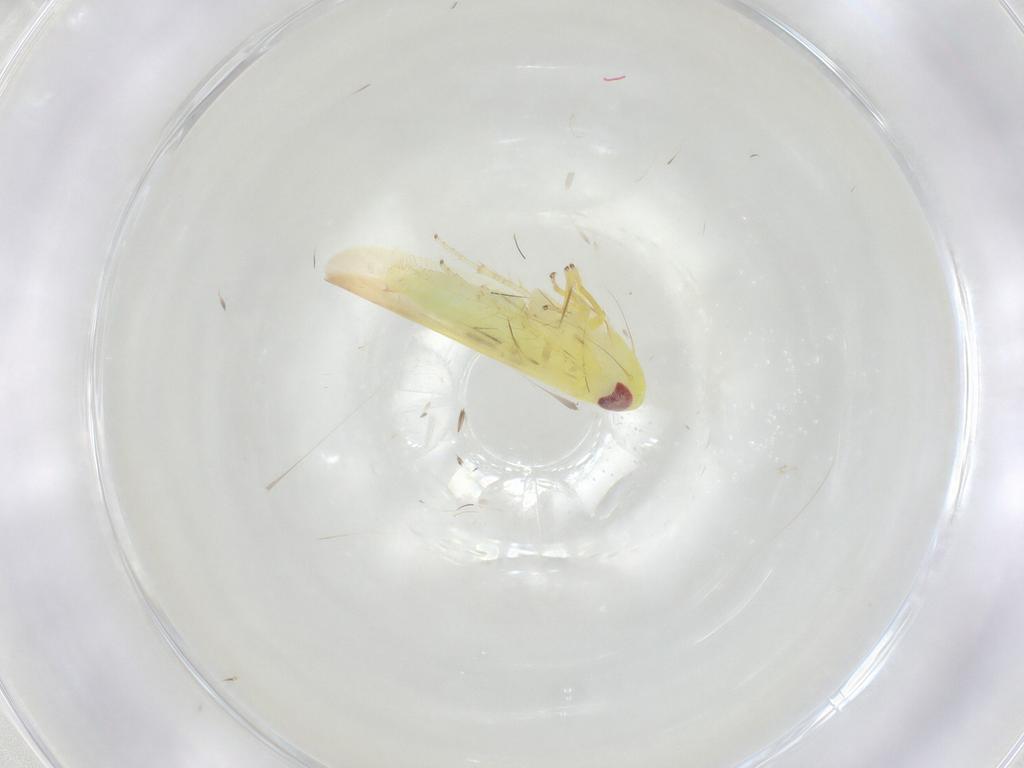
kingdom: Animalia
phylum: Arthropoda
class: Insecta
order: Hemiptera
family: Cicadellidae
